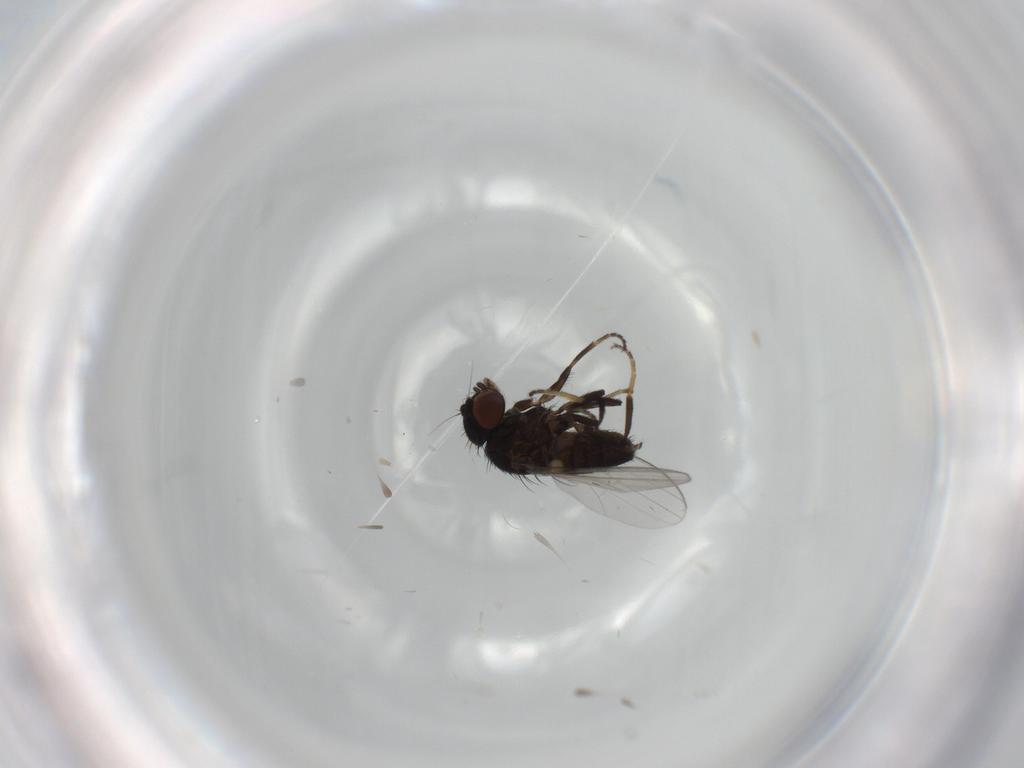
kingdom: Animalia
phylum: Arthropoda
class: Insecta
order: Diptera
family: Milichiidae
